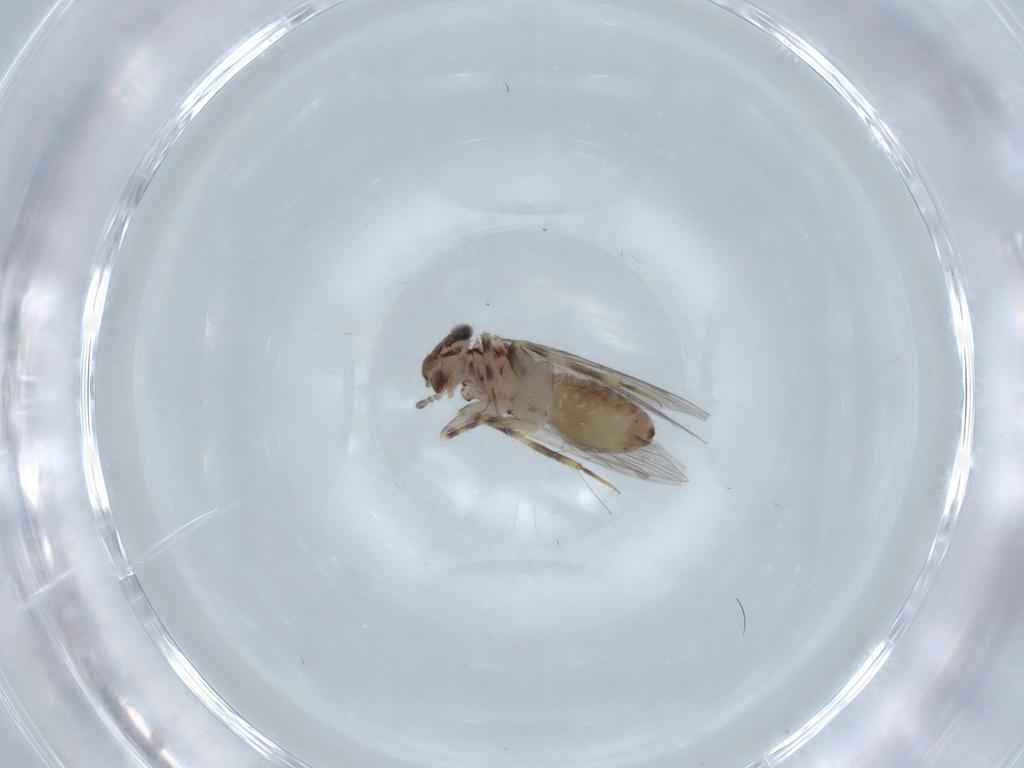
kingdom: Animalia
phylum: Arthropoda
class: Insecta
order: Psocodea
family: Lepidopsocidae
